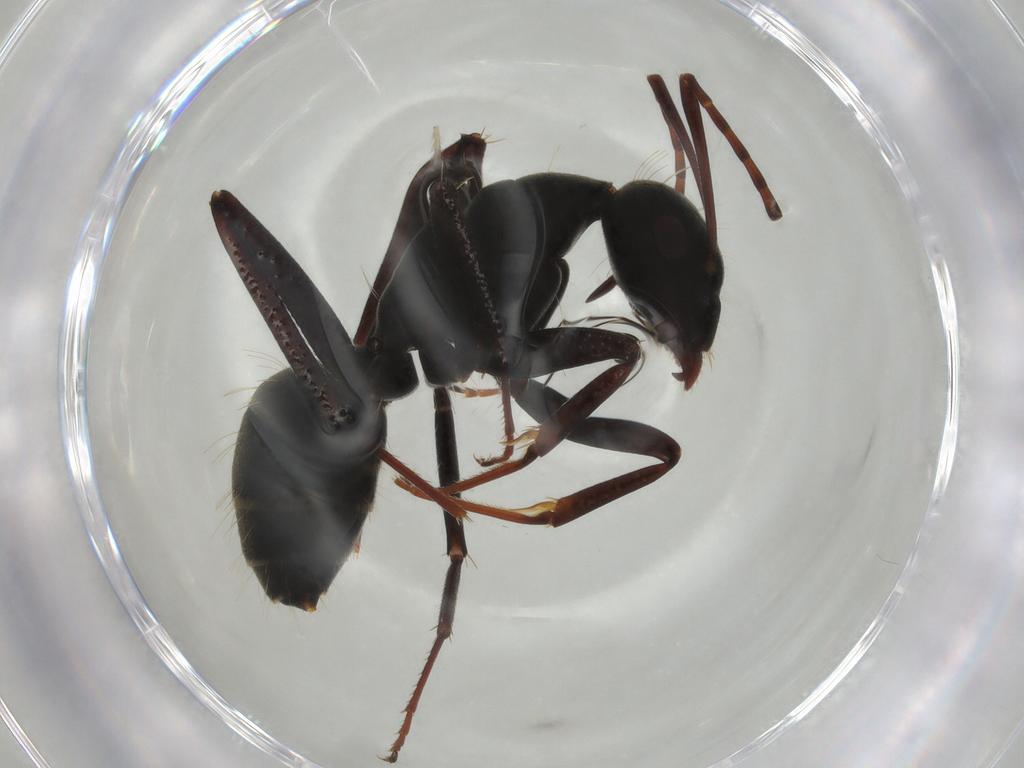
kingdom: Animalia
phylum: Arthropoda
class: Insecta
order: Hymenoptera
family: Formicidae
